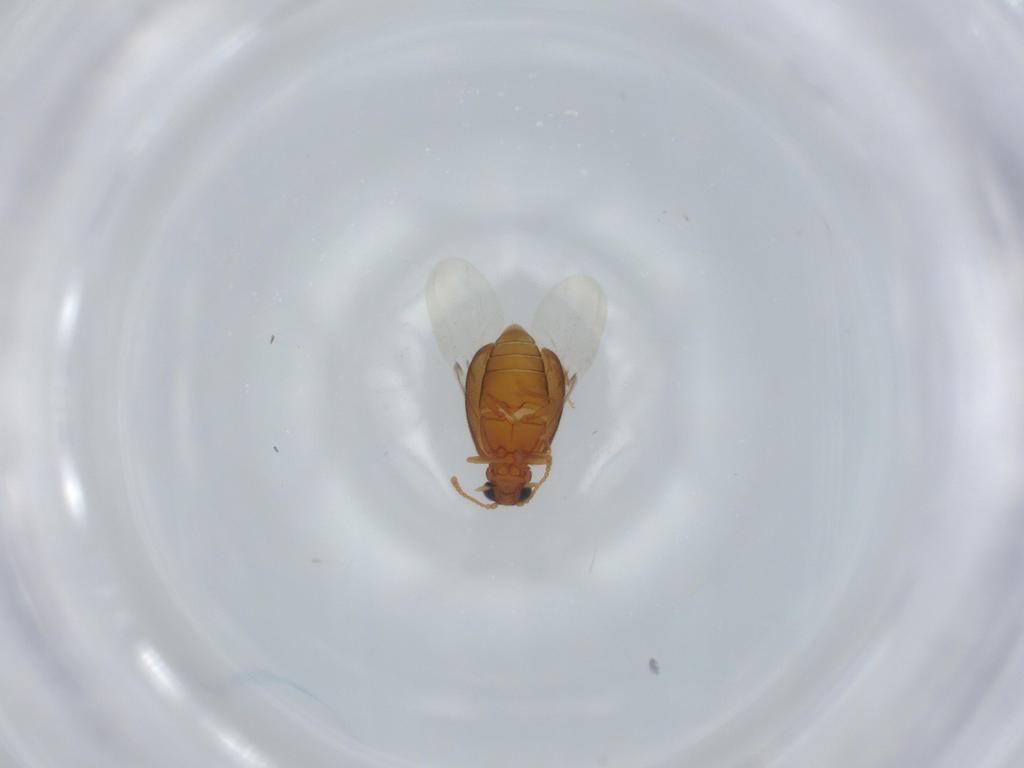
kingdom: Animalia
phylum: Arthropoda
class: Insecta
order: Coleoptera
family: Aderidae
